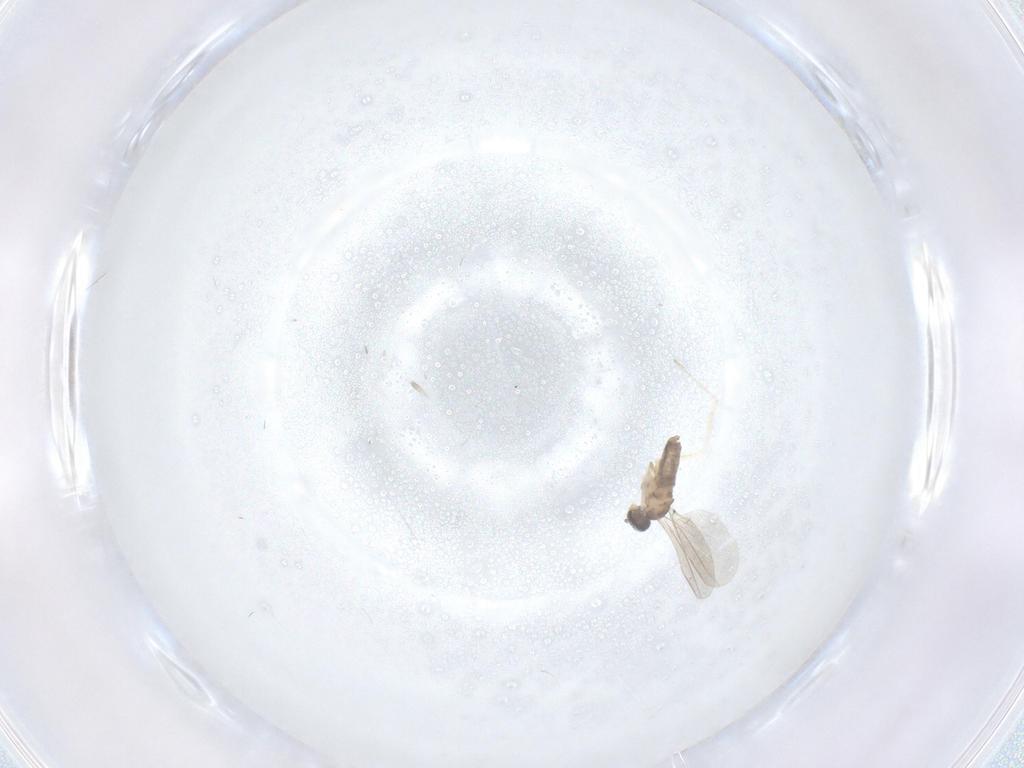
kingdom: Animalia
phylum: Arthropoda
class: Insecta
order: Diptera
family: Cecidomyiidae
